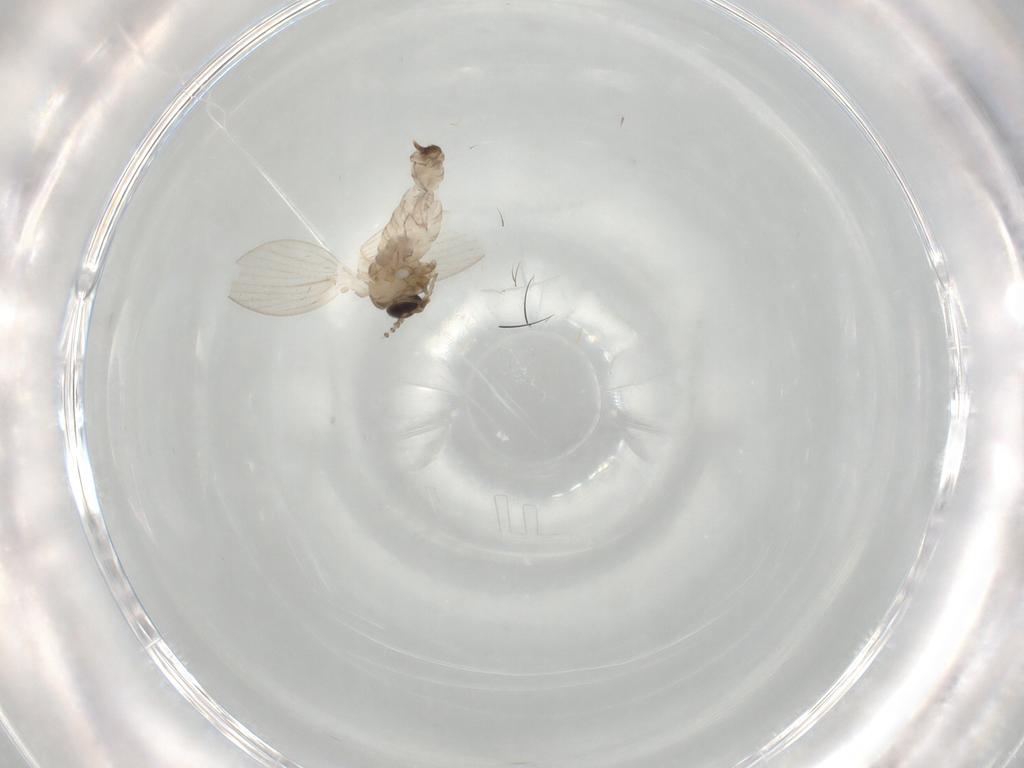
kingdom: Animalia
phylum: Arthropoda
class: Insecta
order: Diptera
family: Psychodidae
